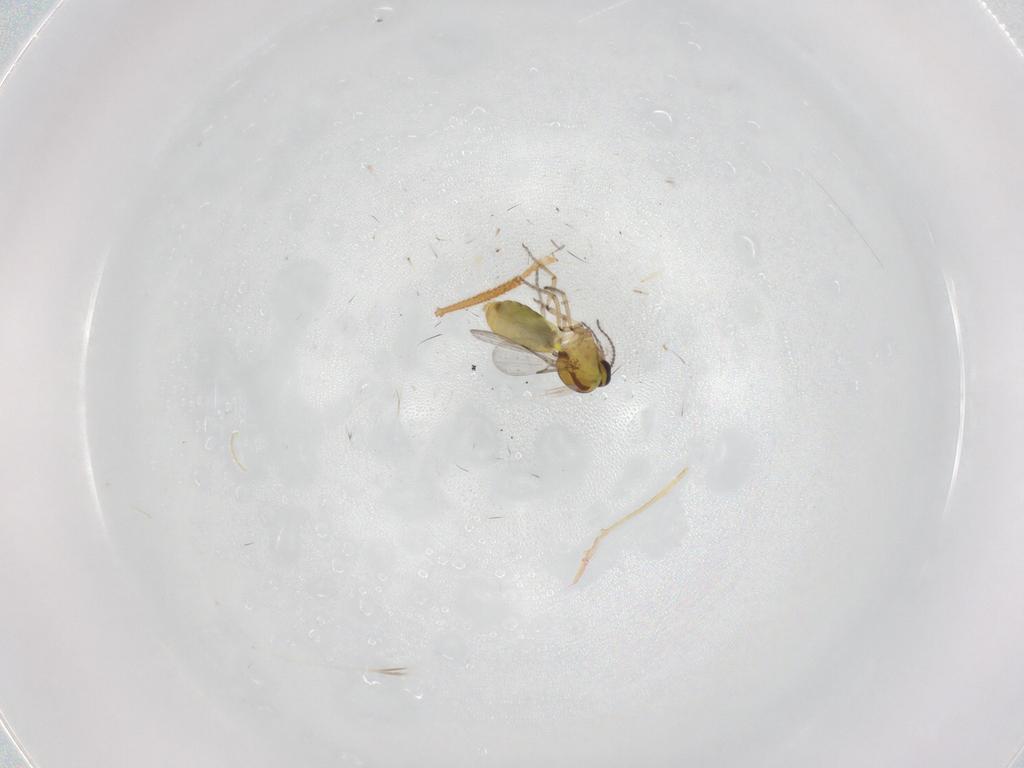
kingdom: Animalia
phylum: Arthropoda
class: Insecta
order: Diptera
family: Ceratopogonidae
